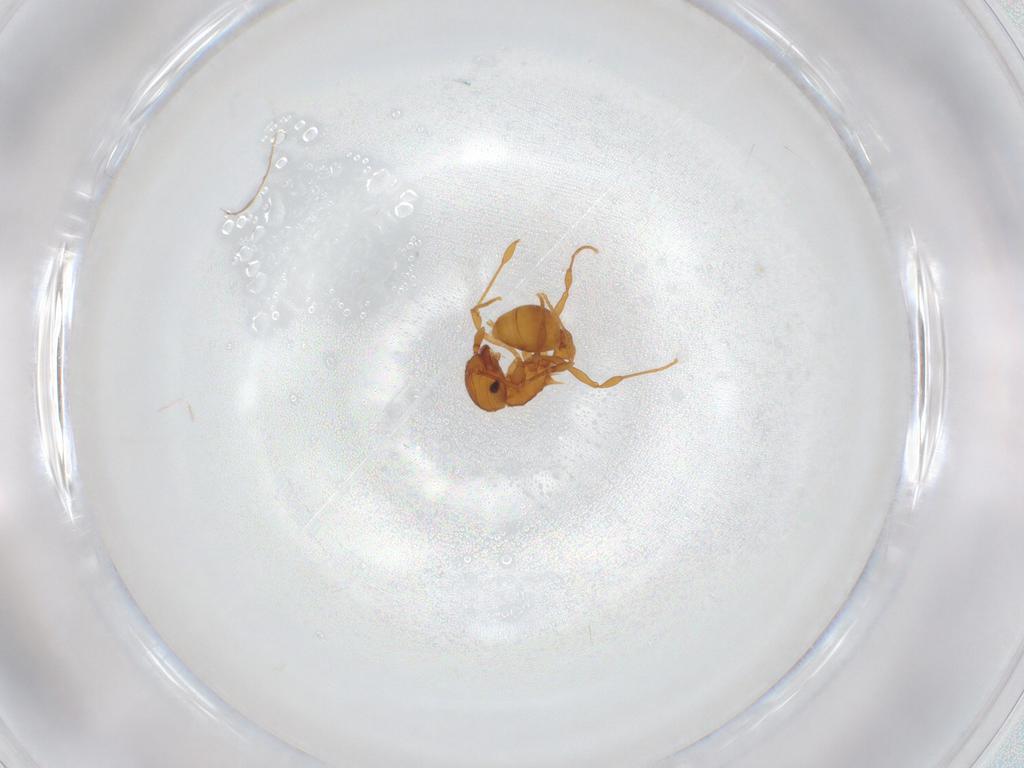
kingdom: Animalia
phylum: Arthropoda
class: Insecta
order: Hymenoptera
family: Formicidae
